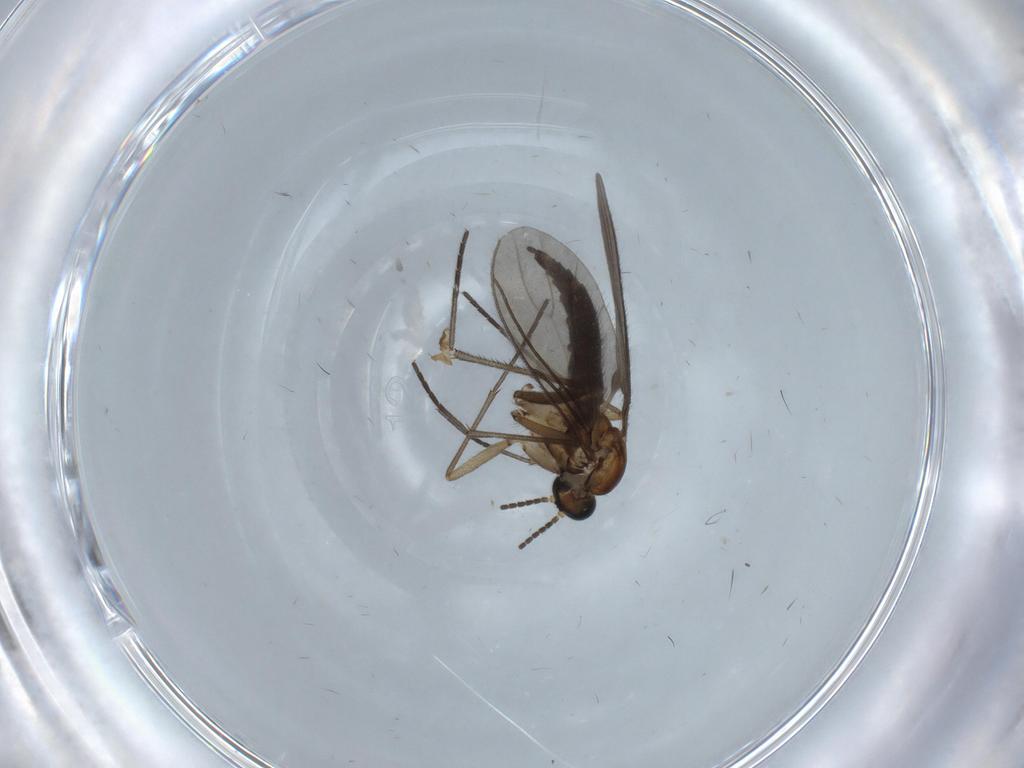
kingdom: Animalia
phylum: Arthropoda
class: Insecta
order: Diptera
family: Sciaridae
